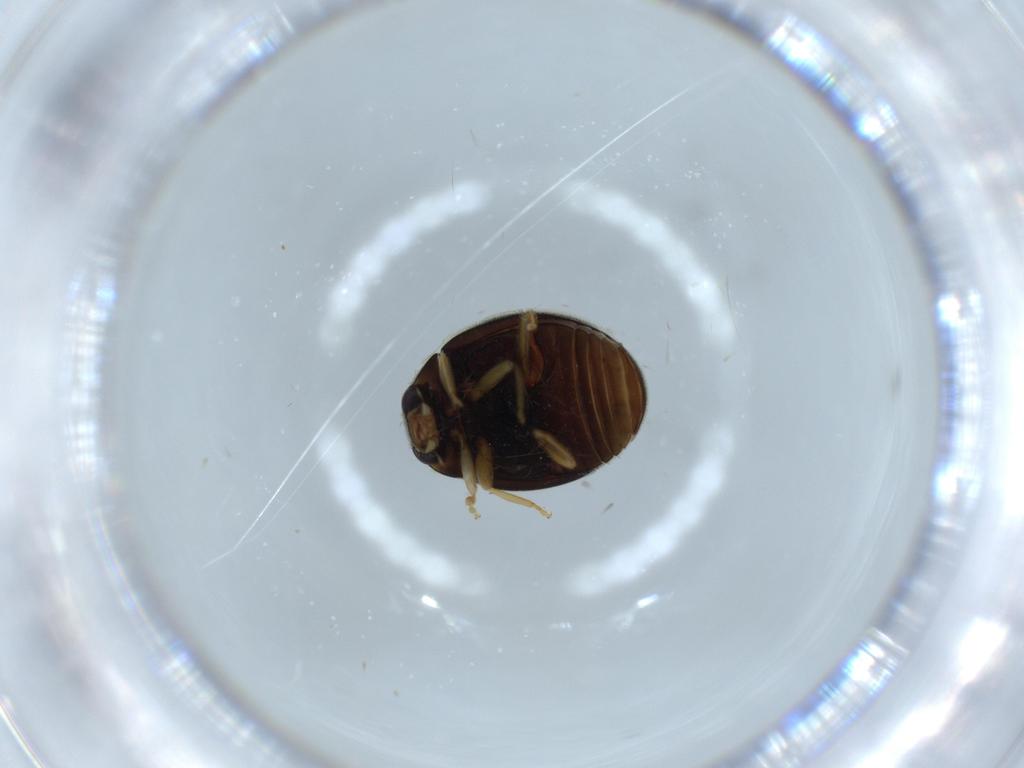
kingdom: Animalia
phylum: Arthropoda
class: Insecta
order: Coleoptera
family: Coccinellidae
